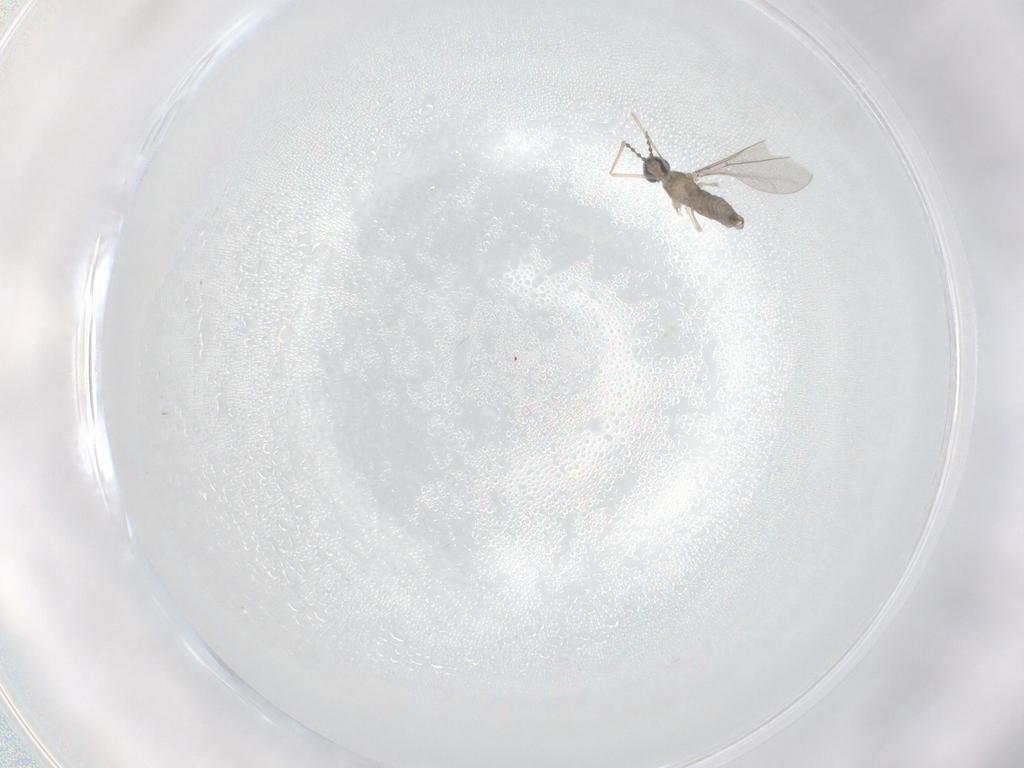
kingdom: Animalia
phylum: Arthropoda
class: Insecta
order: Diptera
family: Cecidomyiidae
